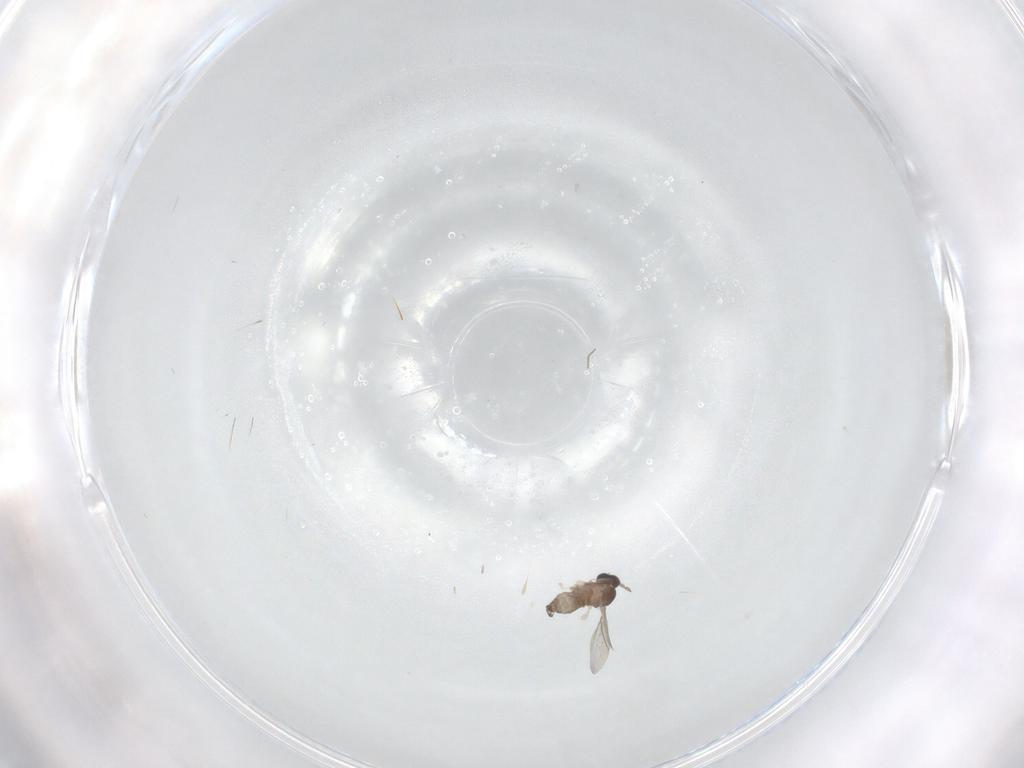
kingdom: Animalia
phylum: Arthropoda
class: Insecta
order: Diptera
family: Cecidomyiidae
